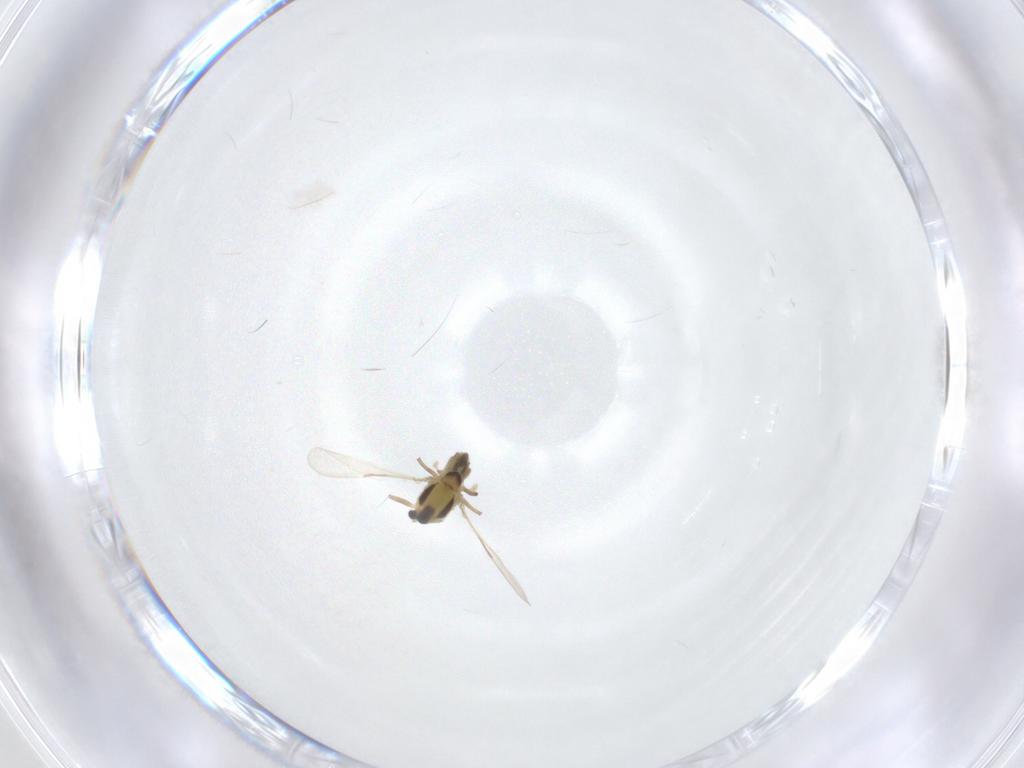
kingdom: Animalia
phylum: Arthropoda
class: Insecta
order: Diptera
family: Chironomidae
